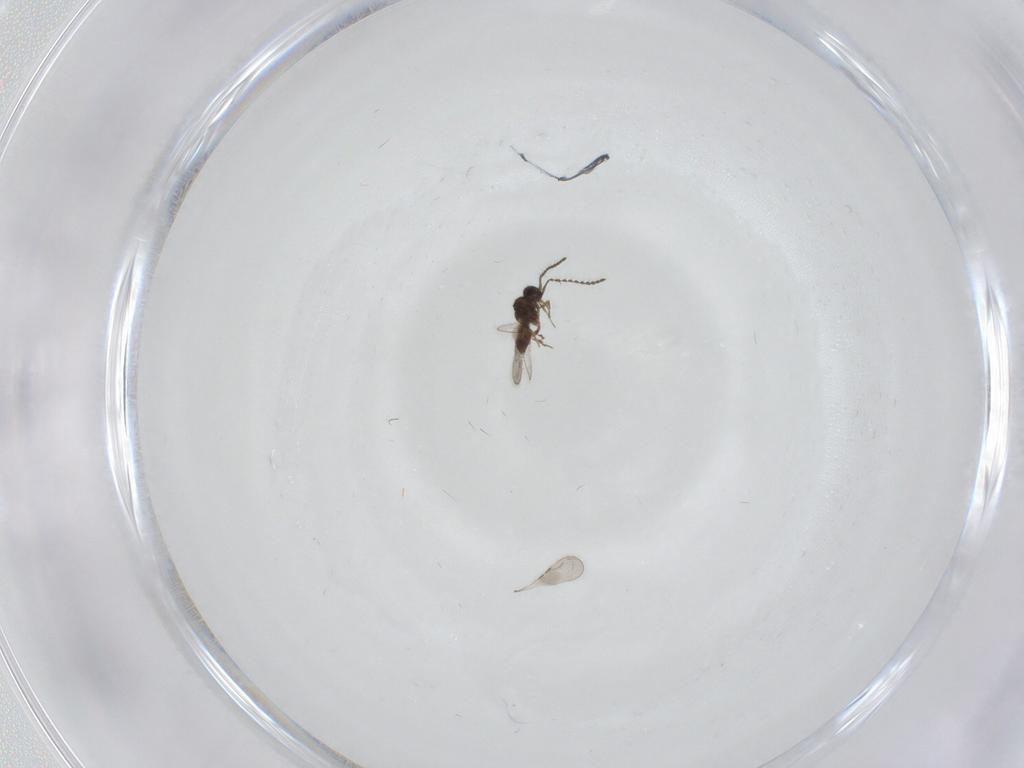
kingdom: Animalia
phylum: Arthropoda
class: Insecta
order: Hymenoptera
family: Ceraphronidae
